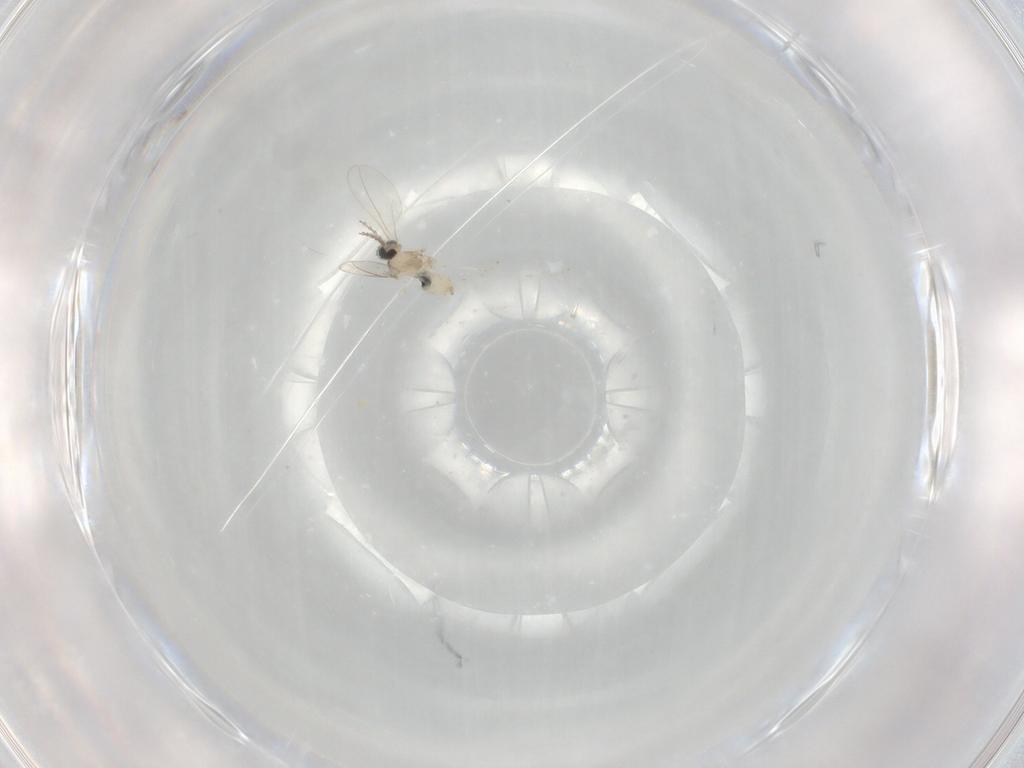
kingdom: Animalia
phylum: Arthropoda
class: Insecta
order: Diptera
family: Cecidomyiidae
